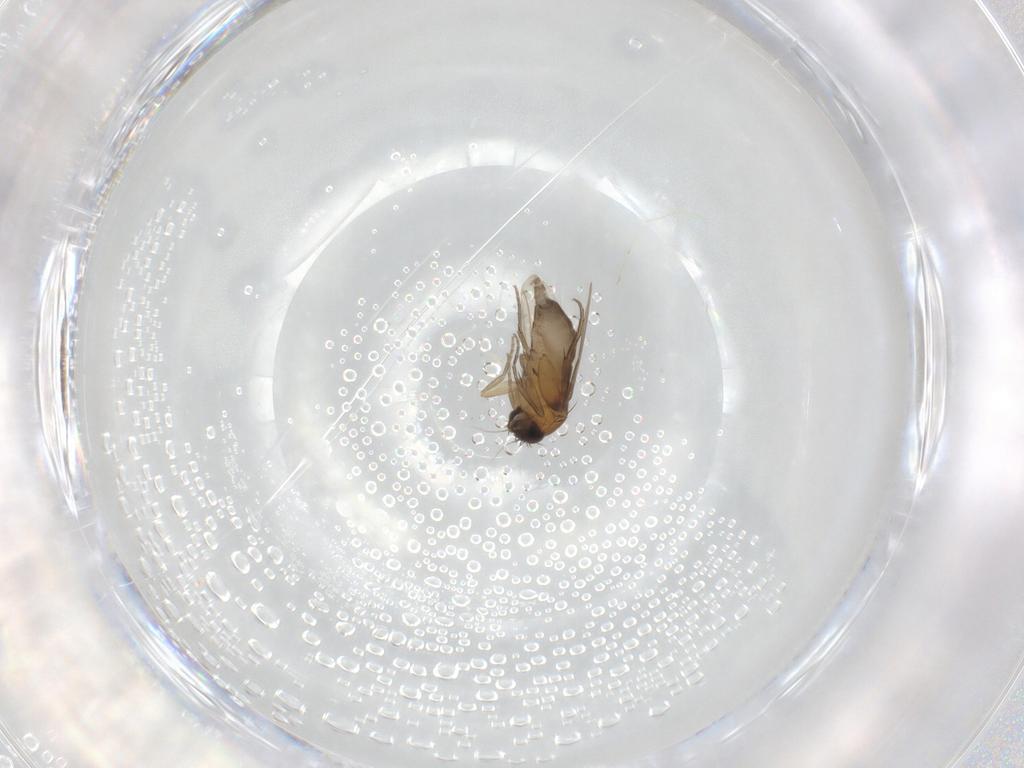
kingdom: Animalia
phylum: Arthropoda
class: Insecta
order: Diptera
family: Phoridae
